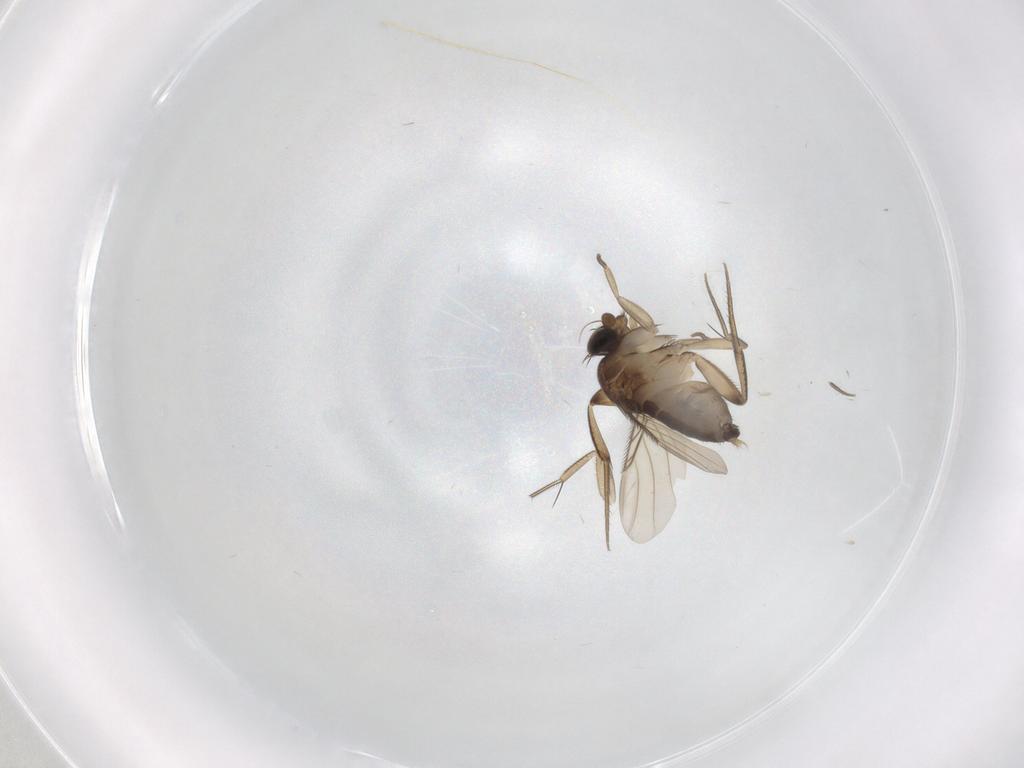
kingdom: Animalia
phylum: Arthropoda
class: Insecta
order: Diptera
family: Phoridae
